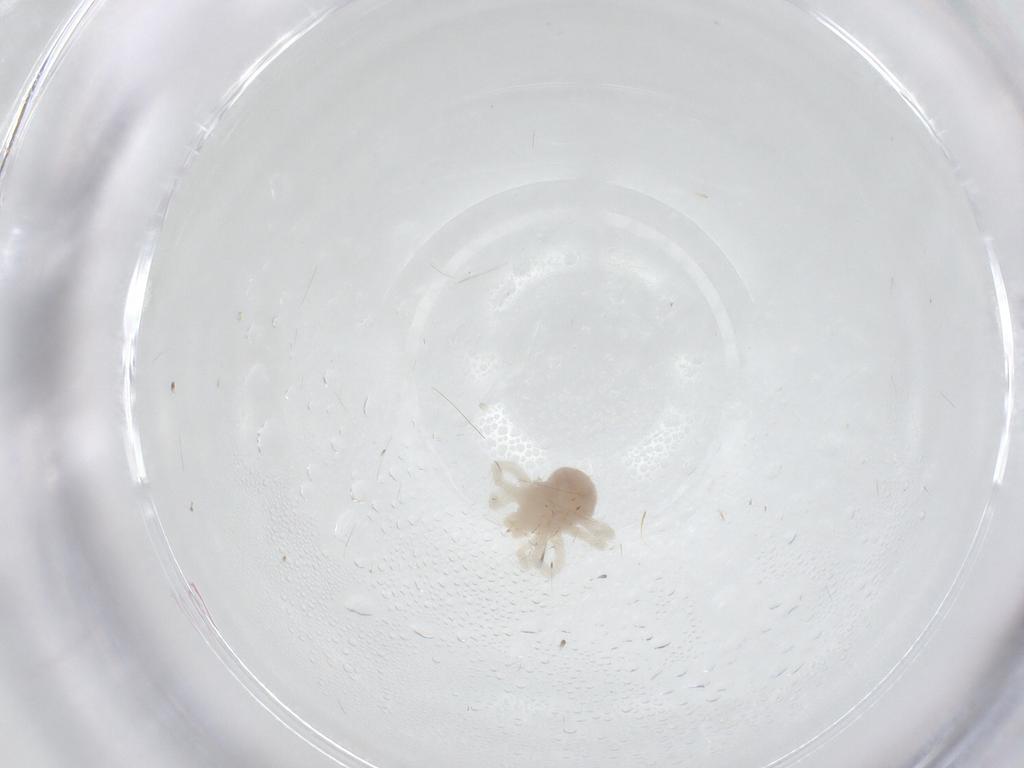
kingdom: Animalia
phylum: Arthropoda
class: Arachnida
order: Trombidiformes
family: Anystidae
